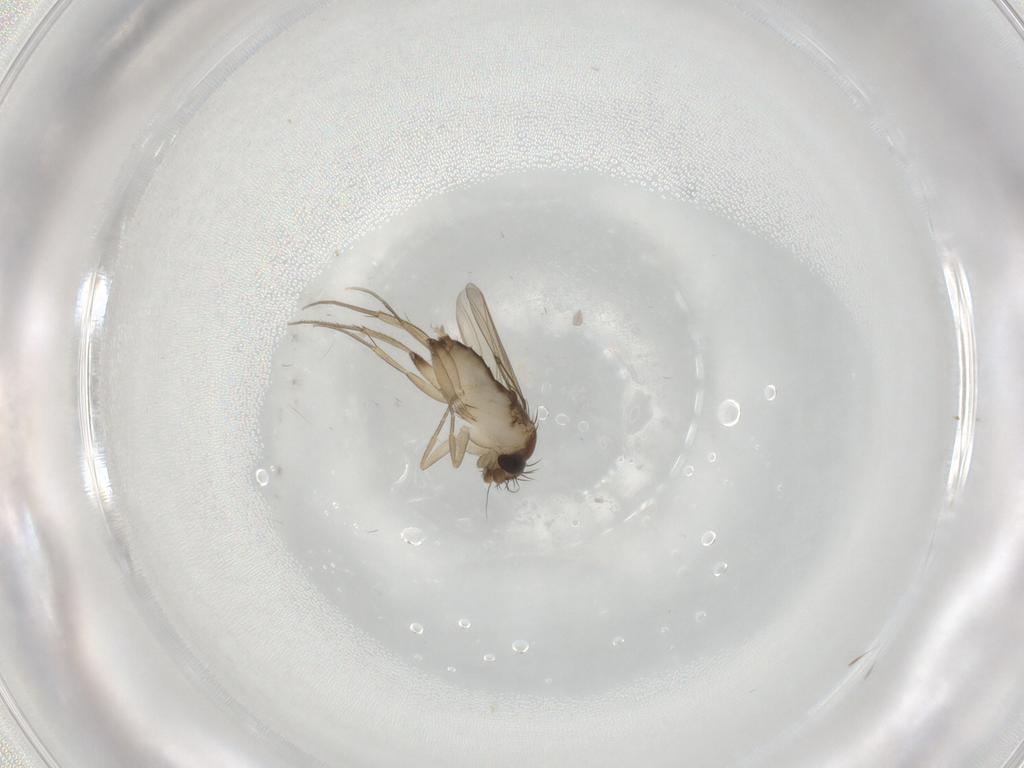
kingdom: Animalia
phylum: Arthropoda
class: Insecta
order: Diptera
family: Phoridae
